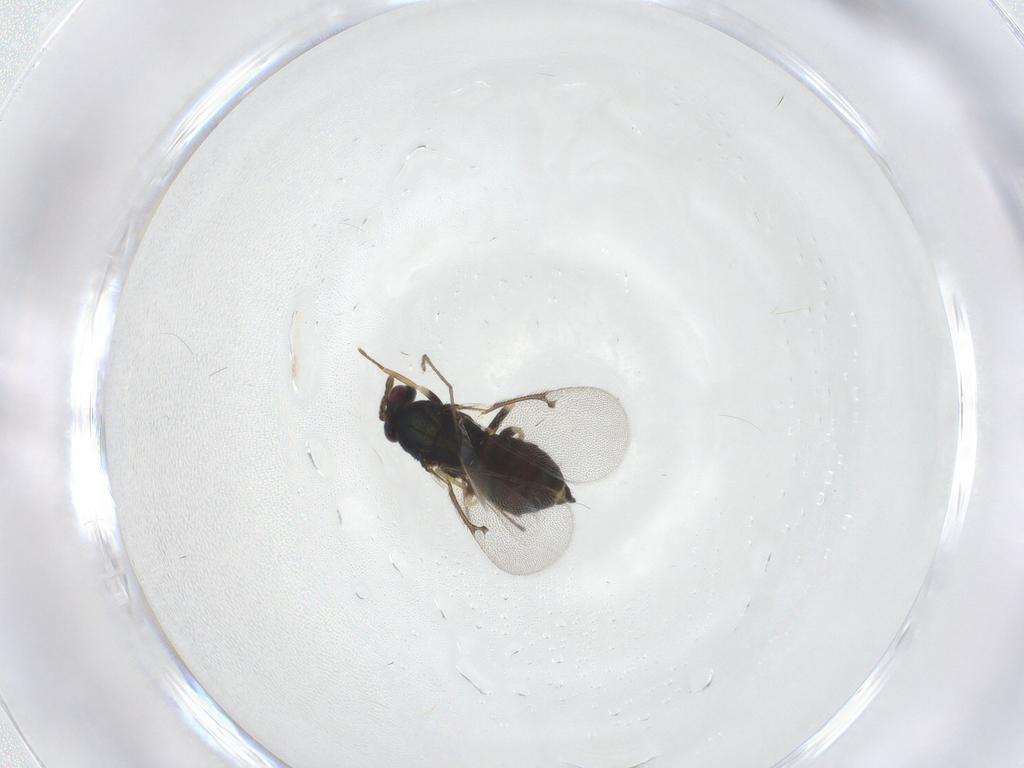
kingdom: Animalia
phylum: Arthropoda
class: Insecta
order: Hymenoptera
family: Eulophidae
